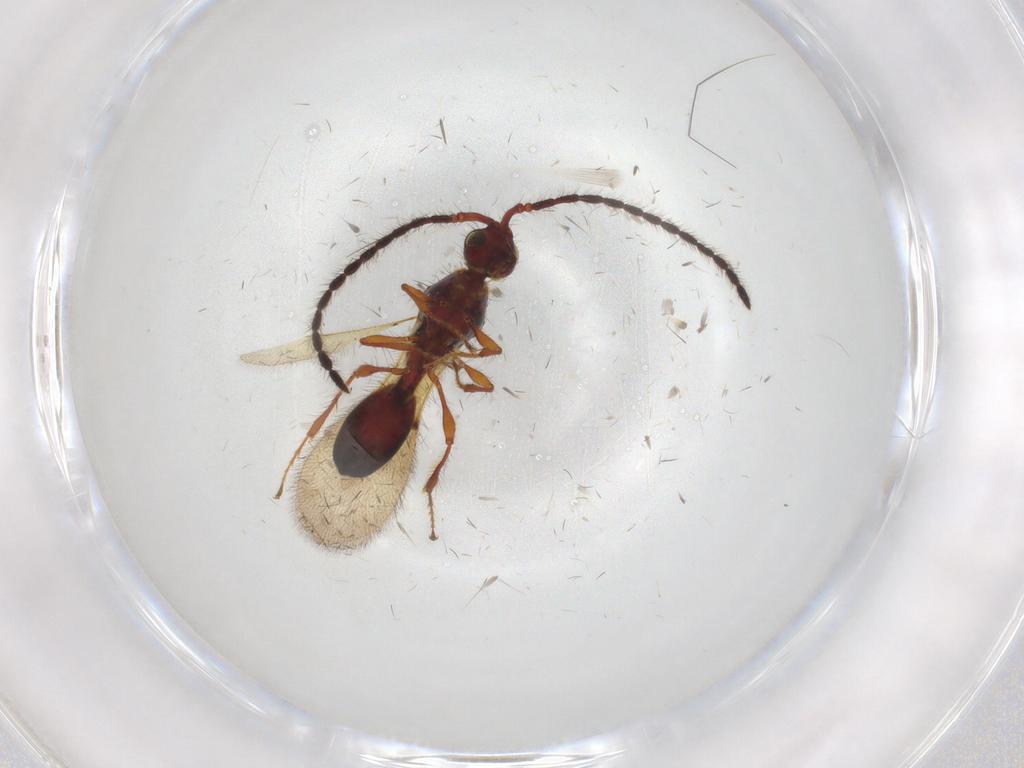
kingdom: Animalia
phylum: Arthropoda
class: Insecta
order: Hymenoptera
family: Diapriidae
